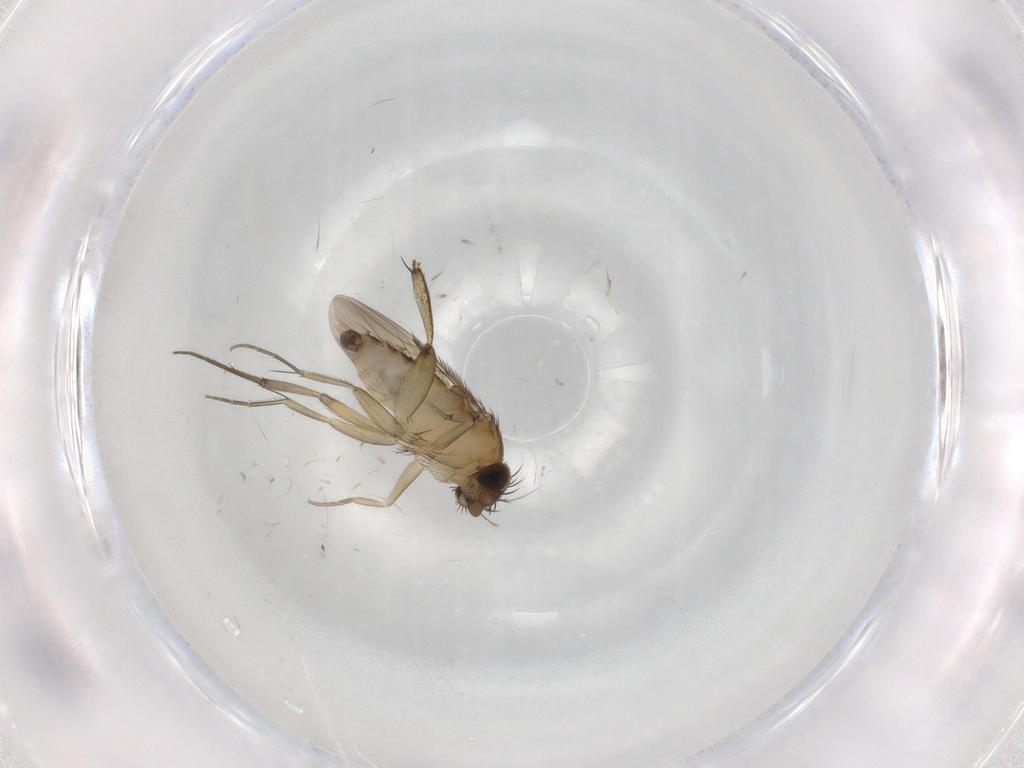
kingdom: Animalia
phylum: Arthropoda
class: Insecta
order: Diptera
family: Phoridae
